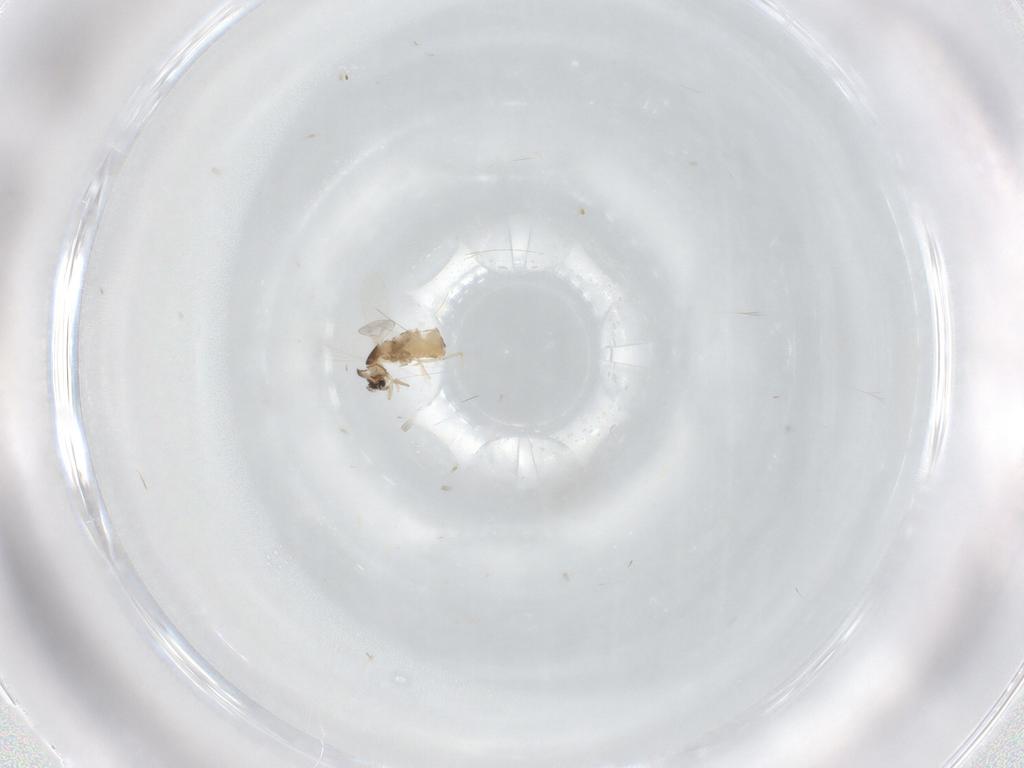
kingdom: Animalia
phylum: Arthropoda
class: Insecta
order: Diptera
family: Cecidomyiidae
